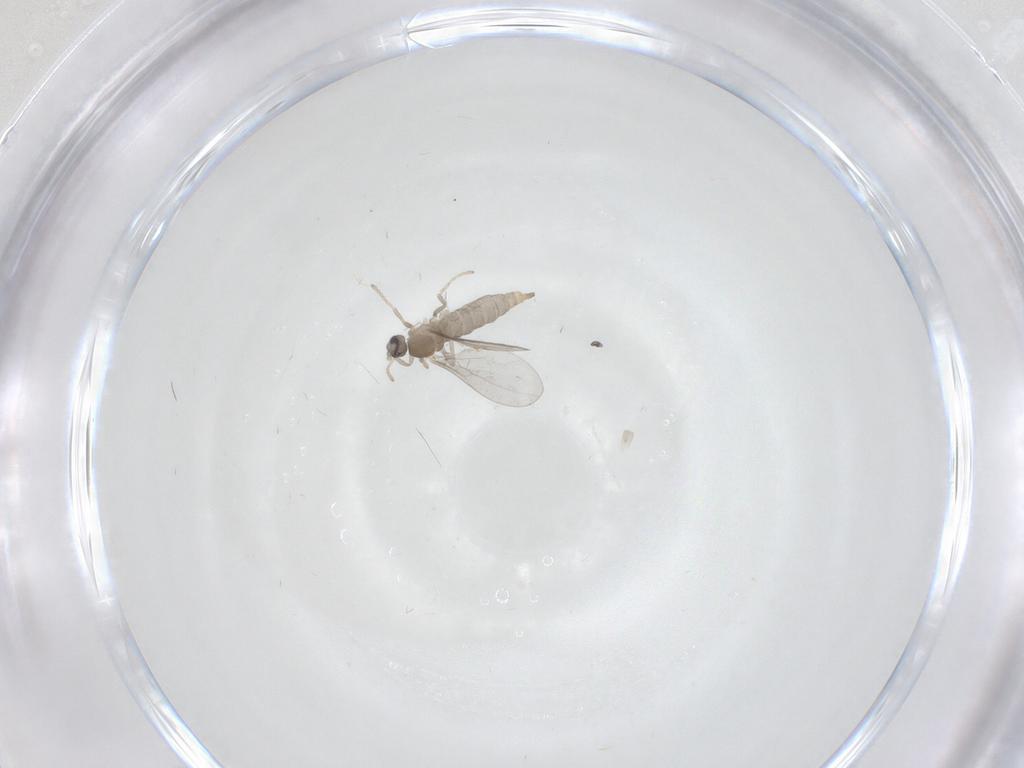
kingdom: Animalia
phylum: Arthropoda
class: Insecta
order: Diptera
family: Cecidomyiidae
